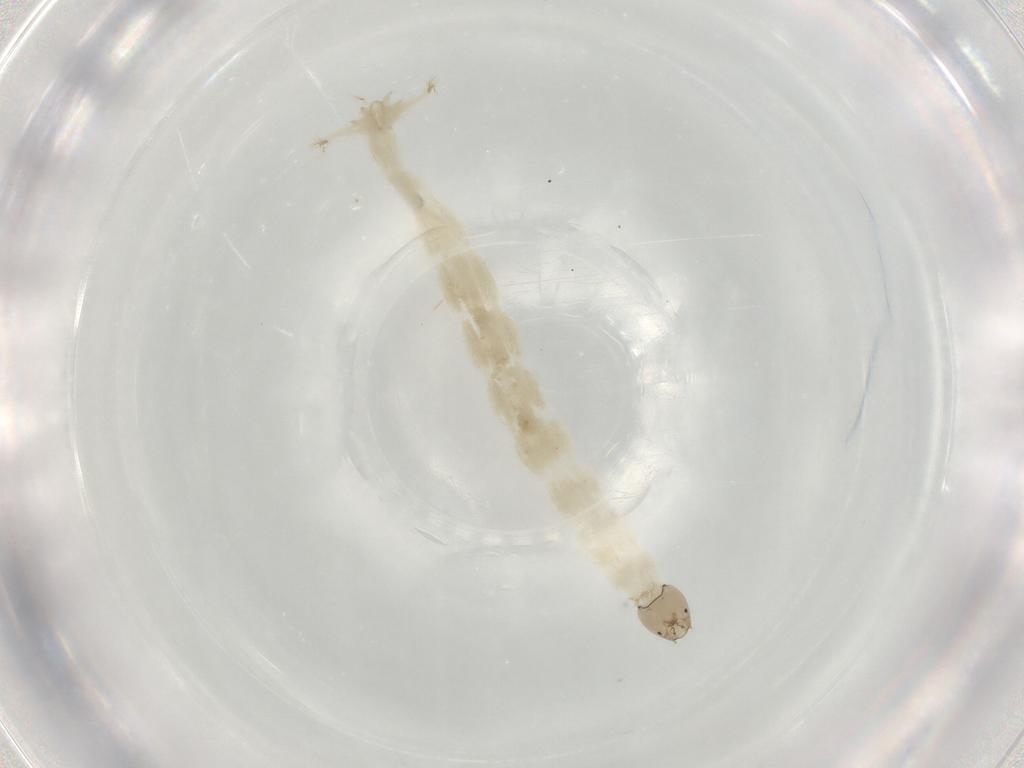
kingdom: Animalia
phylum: Arthropoda
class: Insecta
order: Diptera
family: Chironomidae
